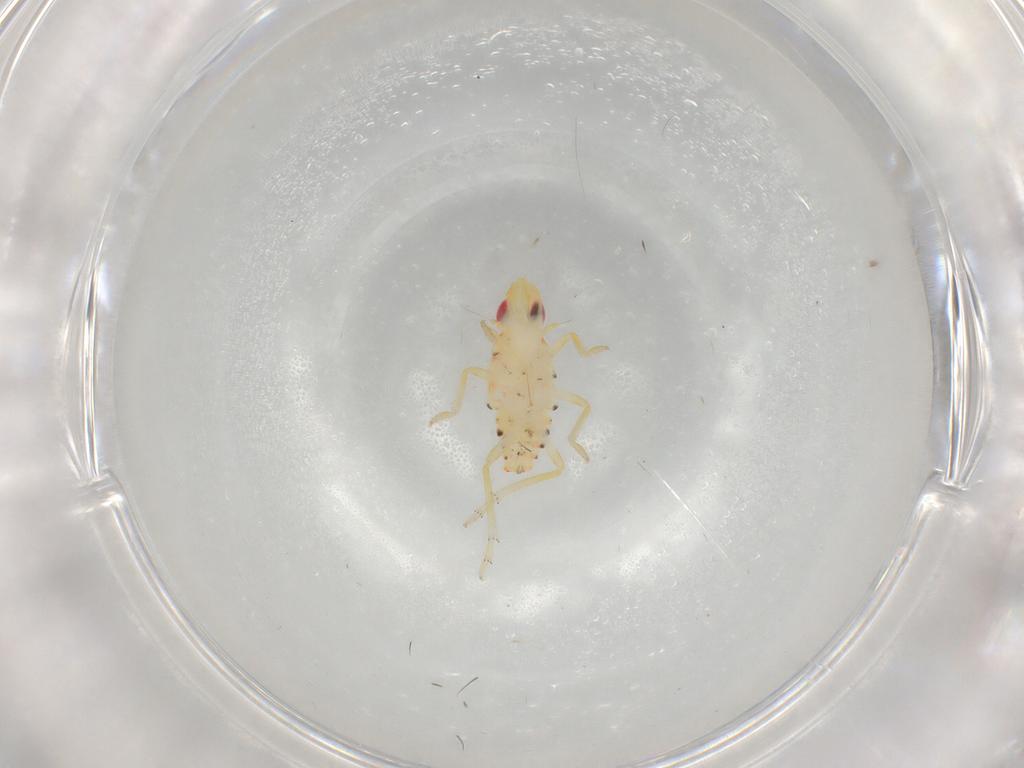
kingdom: Animalia
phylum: Arthropoda
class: Insecta
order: Hemiptera
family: Tropiduchidae
